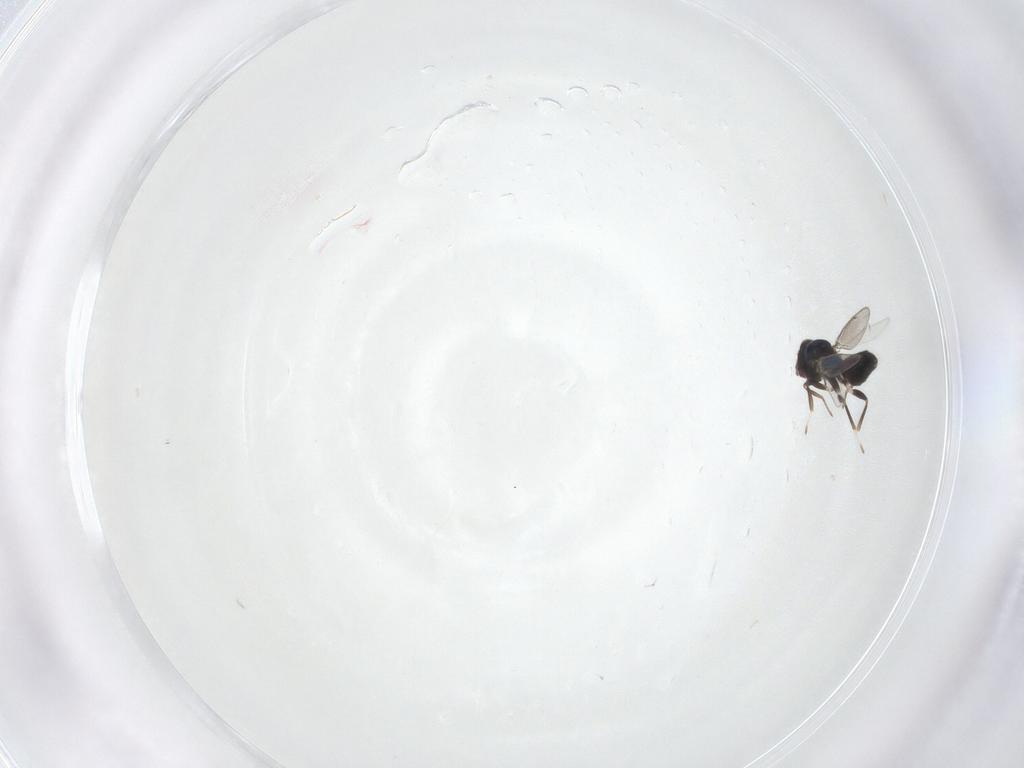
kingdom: Animalia
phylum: Arthropoda
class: Insecta
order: Hymenoptera
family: Eulophidae
